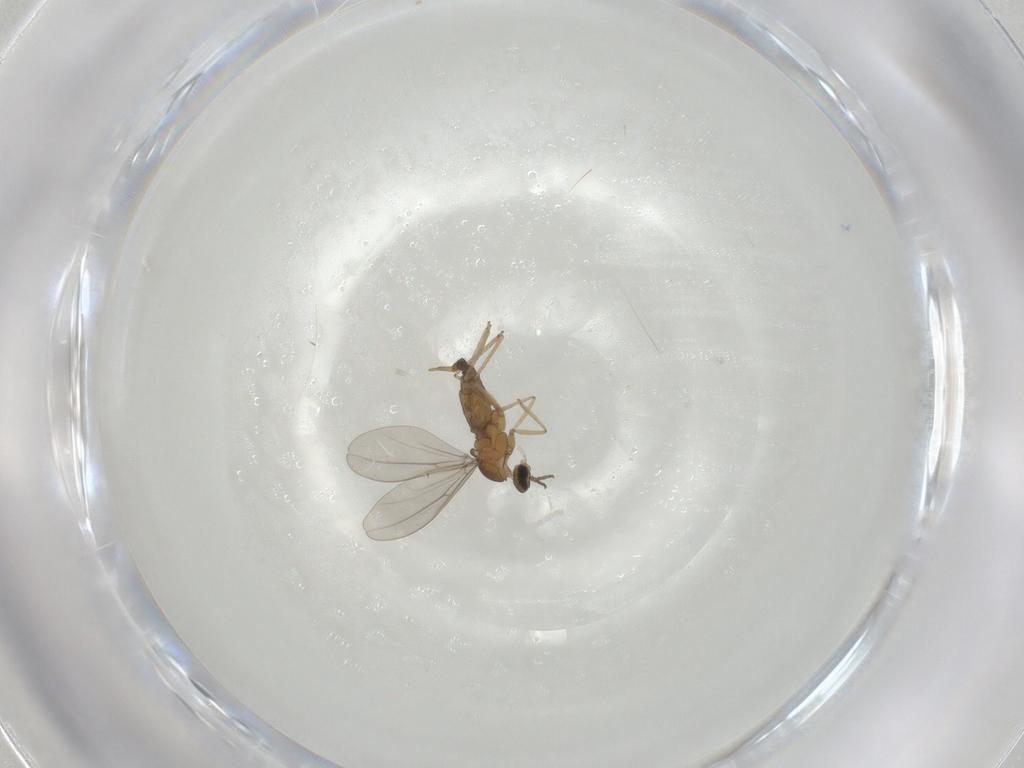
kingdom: Animalia
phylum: Arthropoda
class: Insecta
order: Diptera
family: Cecidomyiidae
